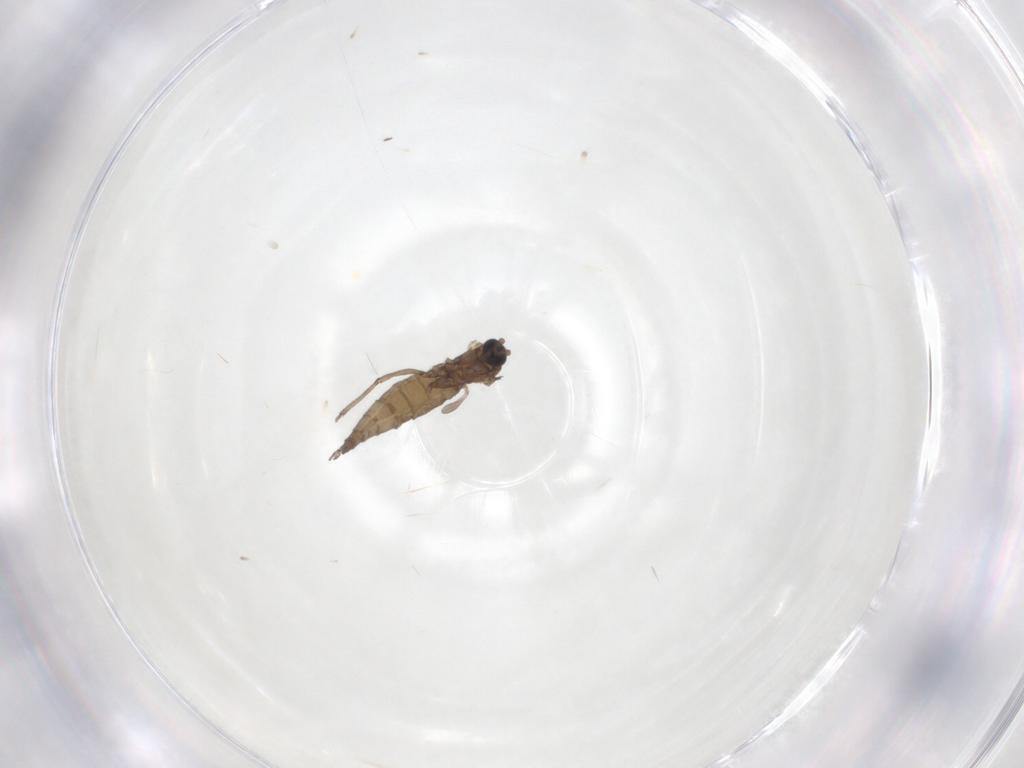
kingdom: Animalia
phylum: Arthropoda
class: Insecta
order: Diptera
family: Sciaridae
